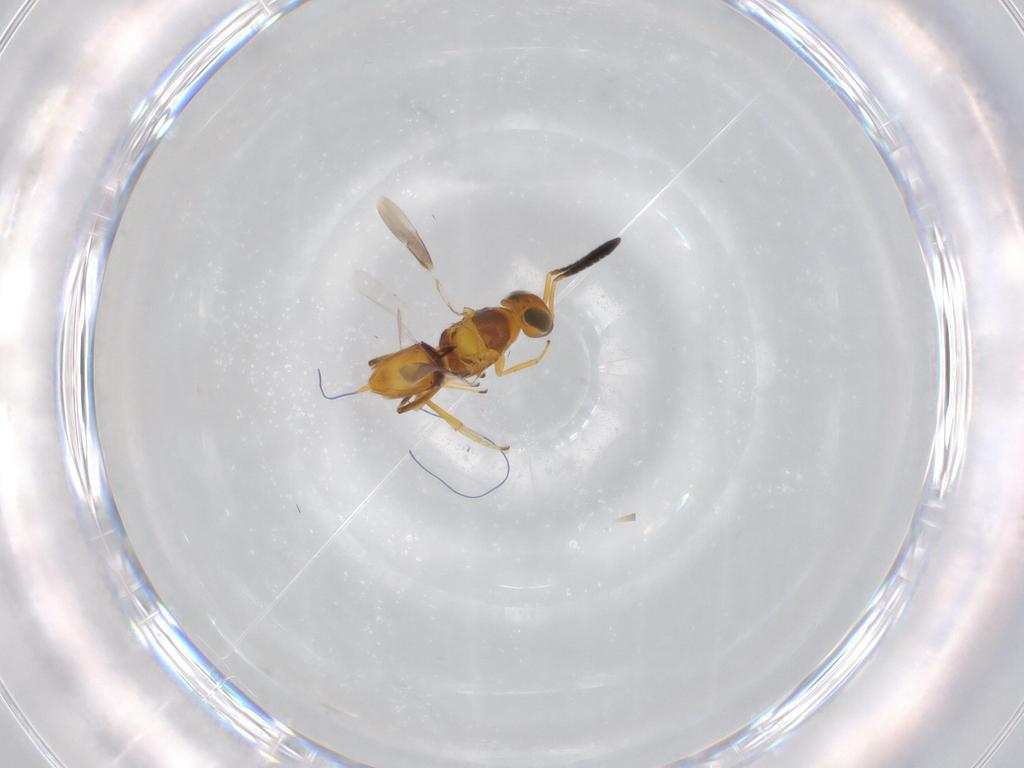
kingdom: Animalia
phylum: Arthropoda
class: Insecta
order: Hymenoptera
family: Encyrtidae
